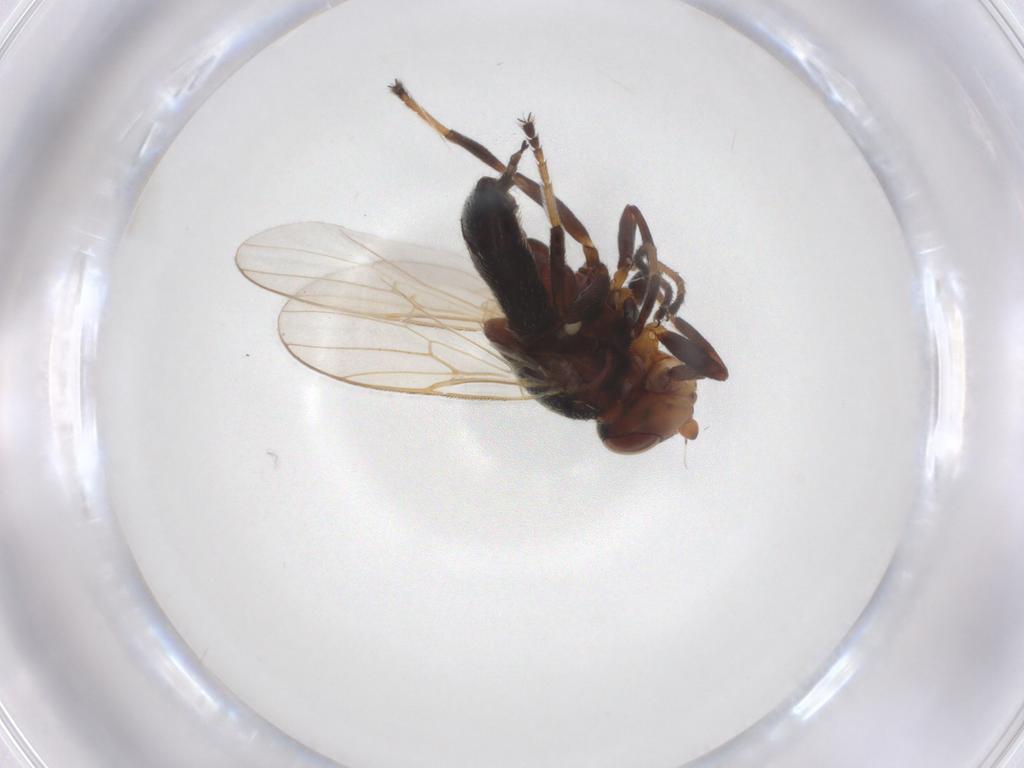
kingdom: Animalia
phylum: Arthropoda
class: Insecta
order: Diptera
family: Chloropidae
